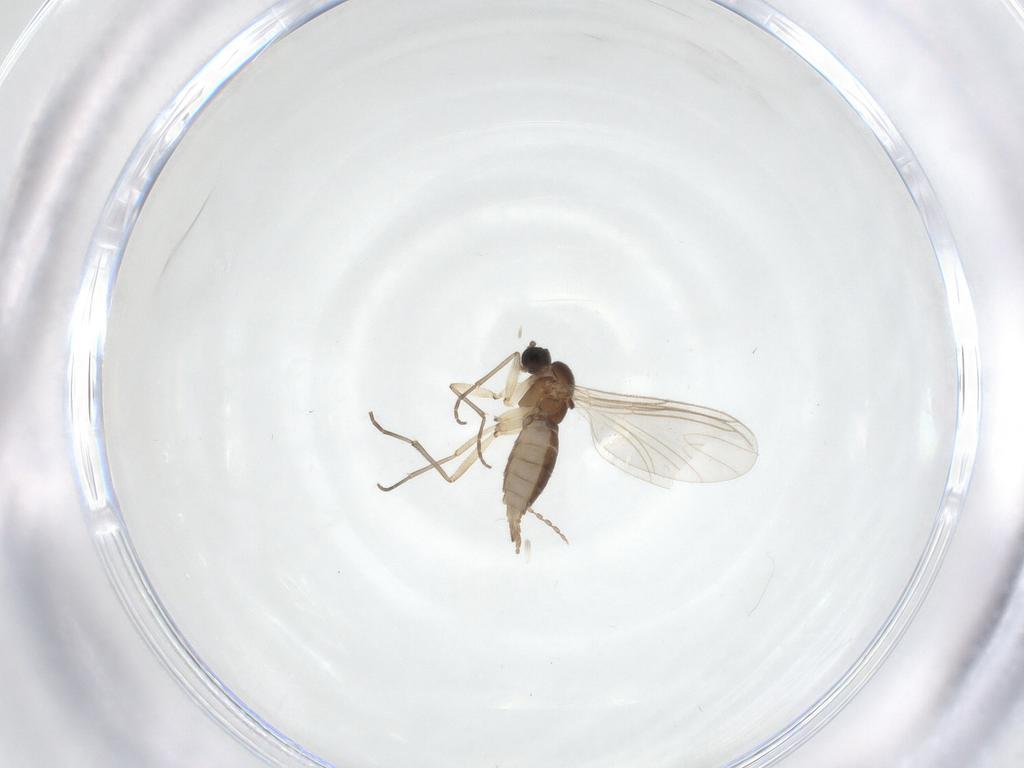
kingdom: Animalia
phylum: Arthropoda
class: Insecta
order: Diptera
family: Sciaridae
